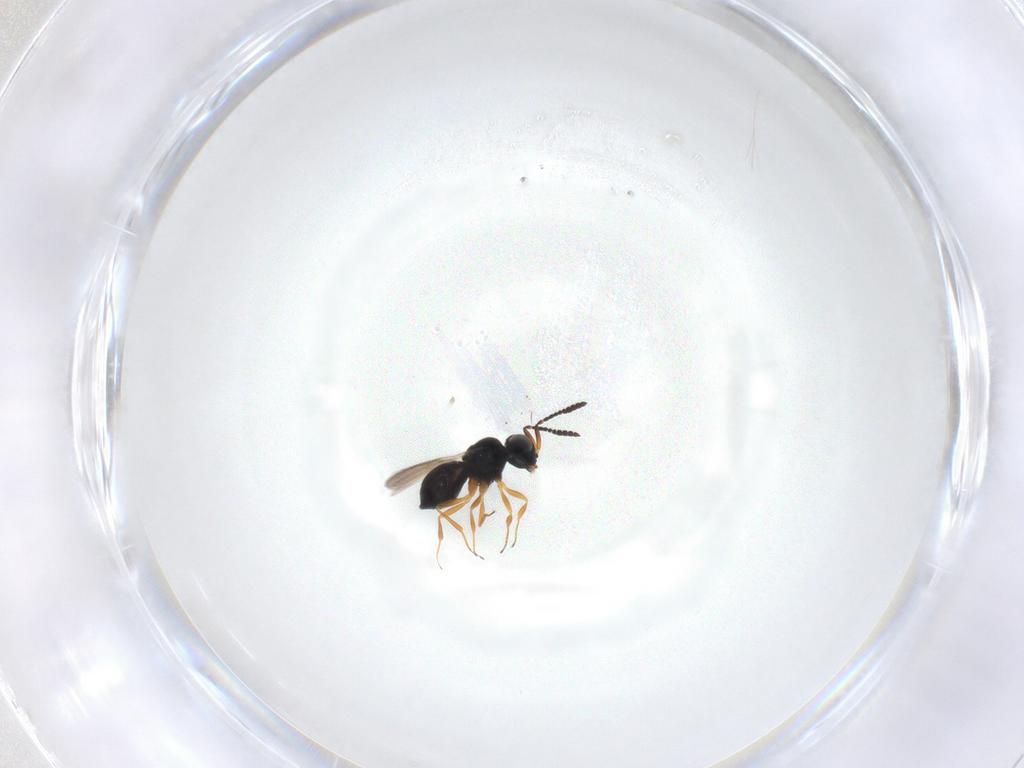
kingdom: Animalia
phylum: Arthropoda
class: Insecta
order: Hymenoptera
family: Scelionidae
